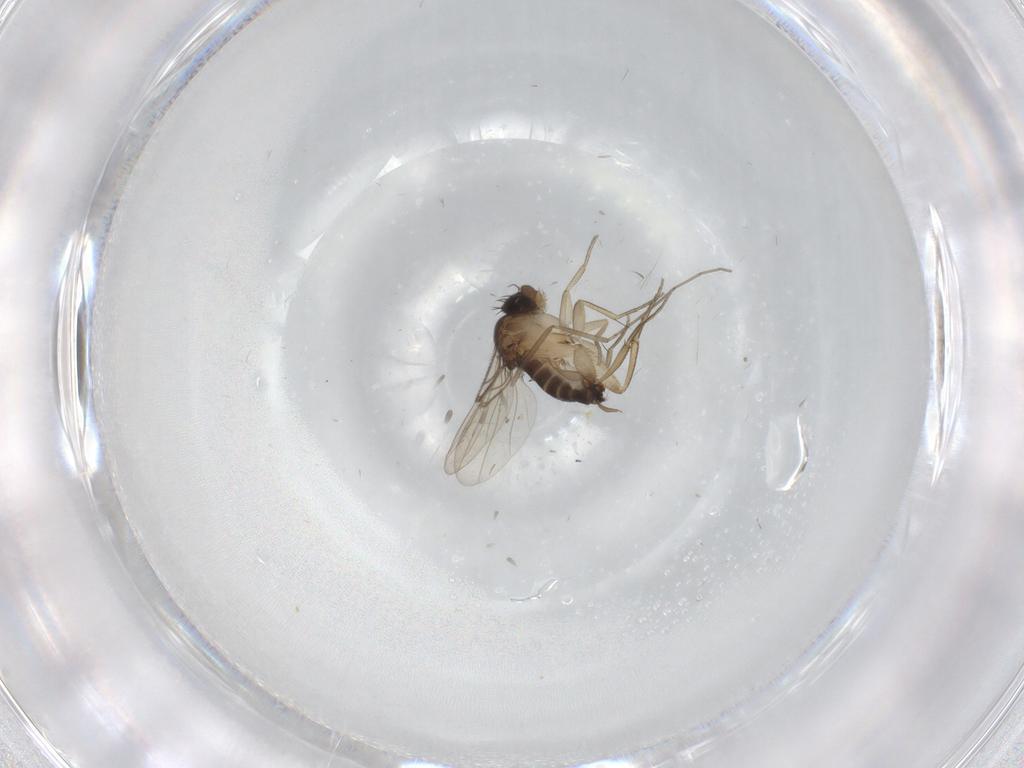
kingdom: Animalia
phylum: Arthropoda
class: Insecta
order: Diptera
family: Cecidomyiidae
